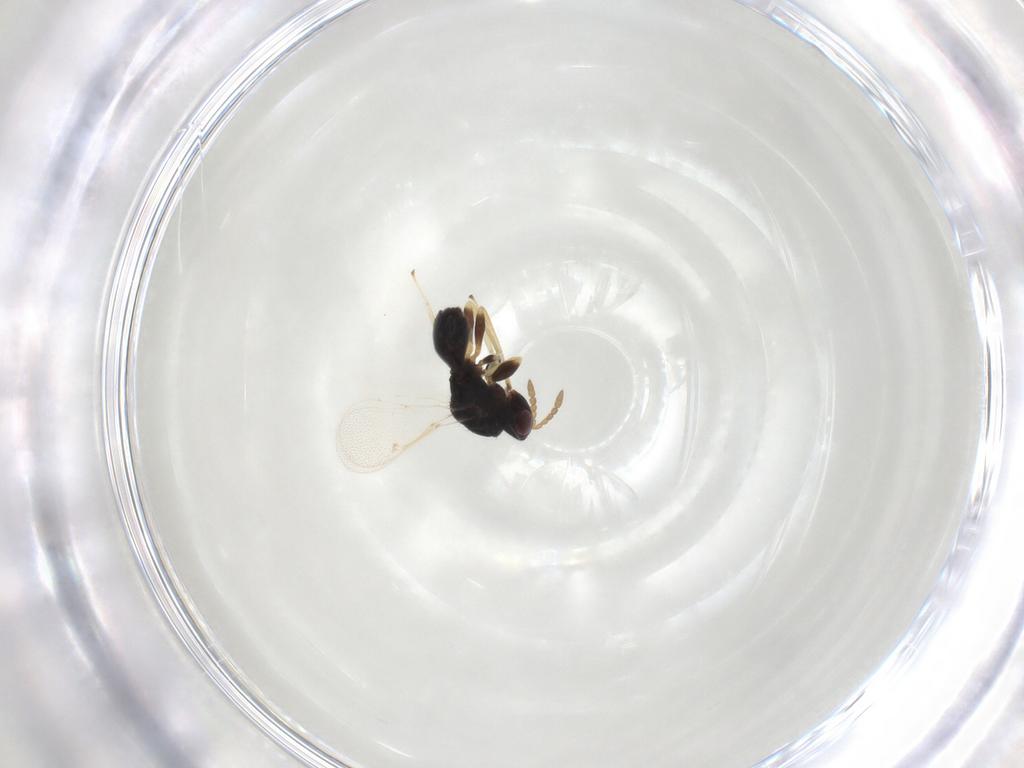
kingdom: Animalia
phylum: Arthropoda
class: Insecta
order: Hymenoptera
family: Eulophidae
